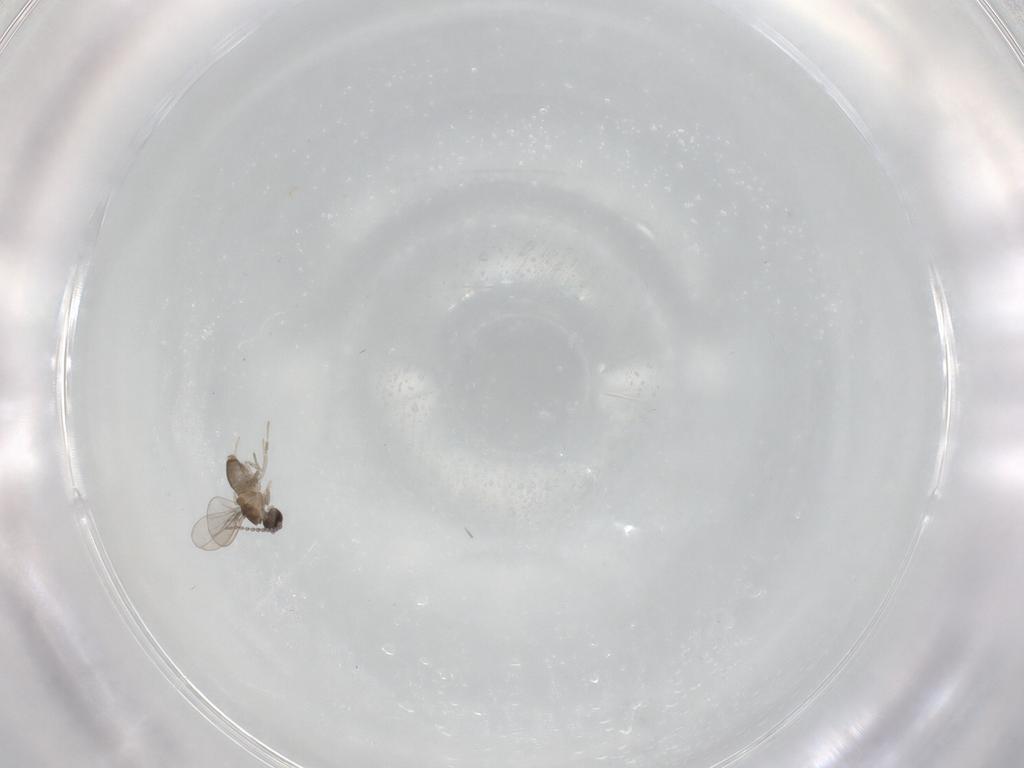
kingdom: Animalia
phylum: Arthropoda
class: Insecta
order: Diptera
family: Cecidomyiidae
